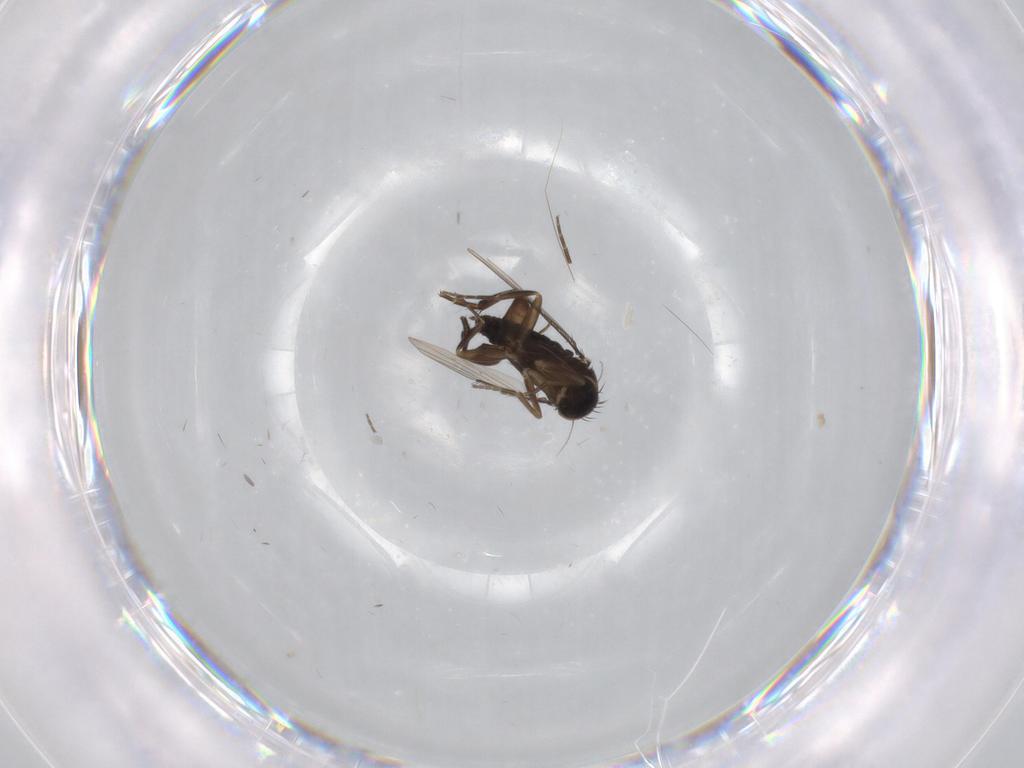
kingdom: Animalia
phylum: Arthropoda
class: Insecta
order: Diptera
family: Phoridae
